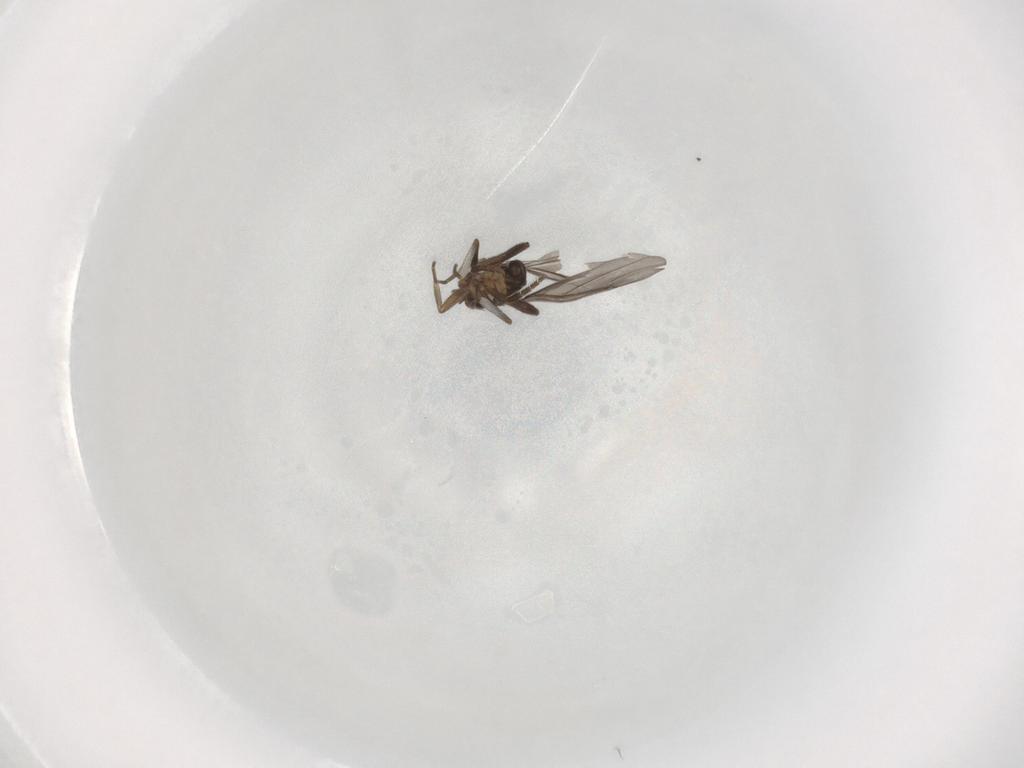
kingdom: Animalia
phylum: Arthropoda
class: Insecta
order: Diptera
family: Phoridae
